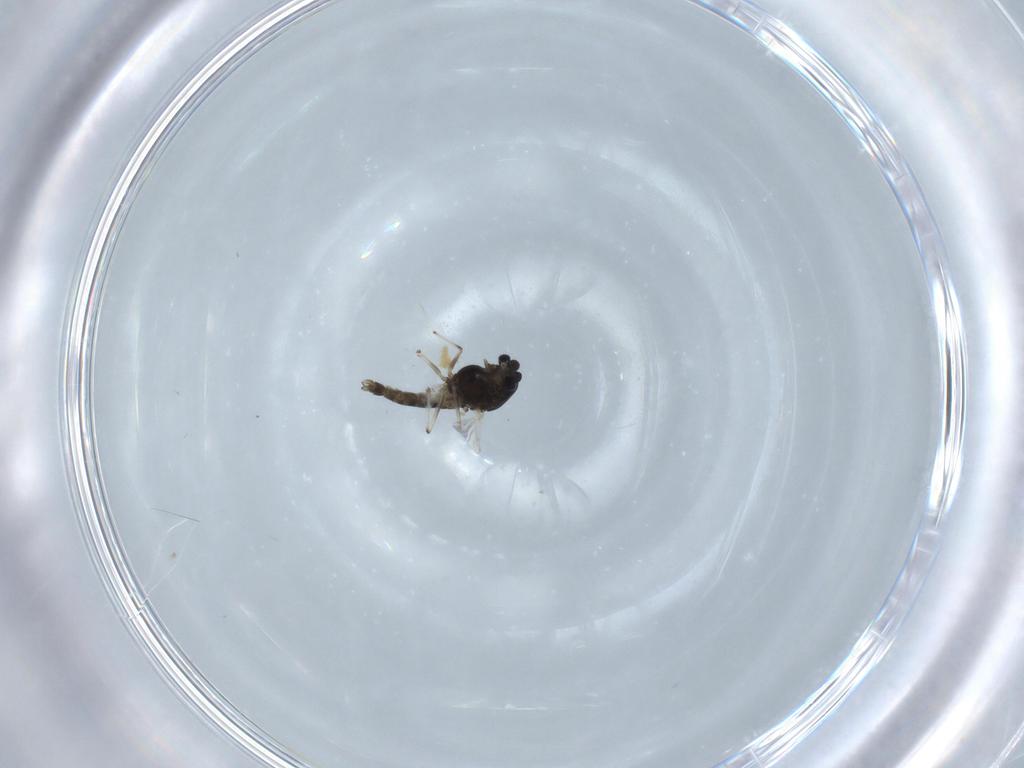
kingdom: Animalia
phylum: Arthropoda
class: Insecta
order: Diptera
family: Chironomidae
